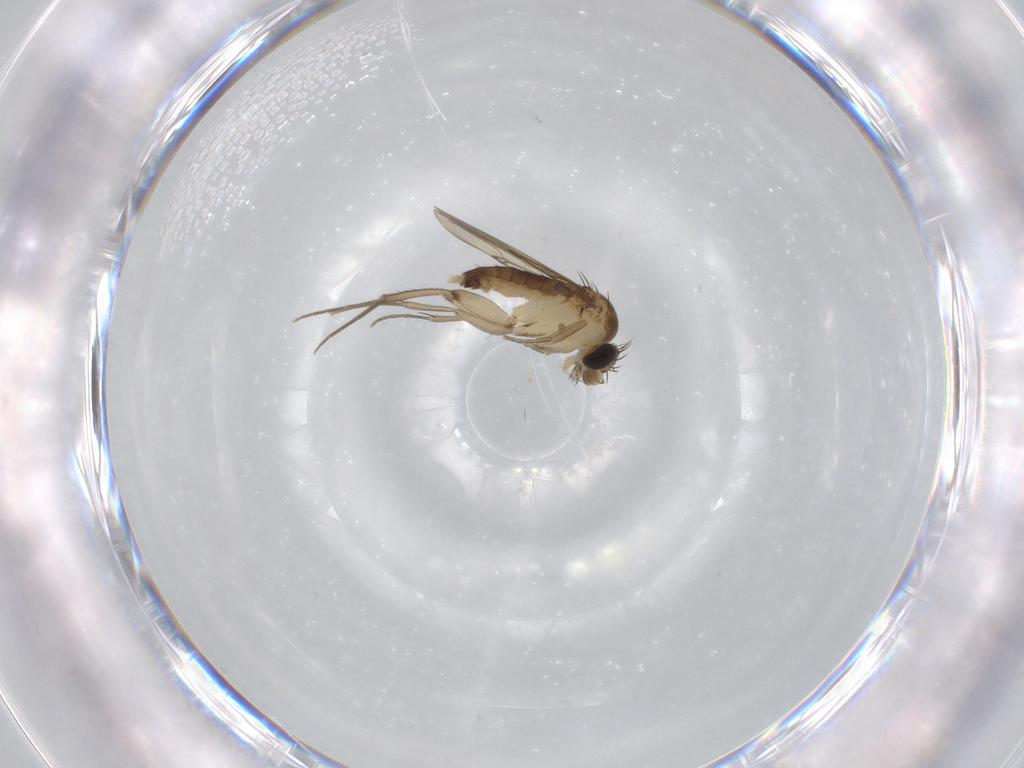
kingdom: Animalia
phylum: Arthropoda
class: Insecta
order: Diptera
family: Phoridae
